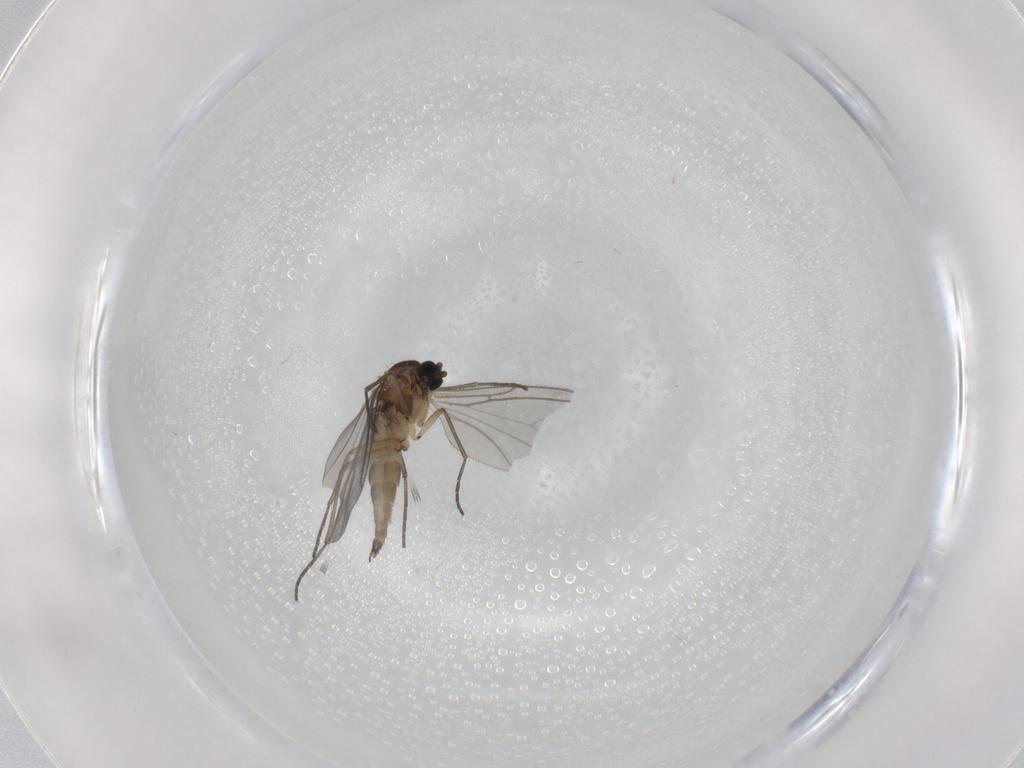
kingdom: Animalia
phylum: Arthropoda
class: Insecta
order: Diptera
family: Sciaridae
